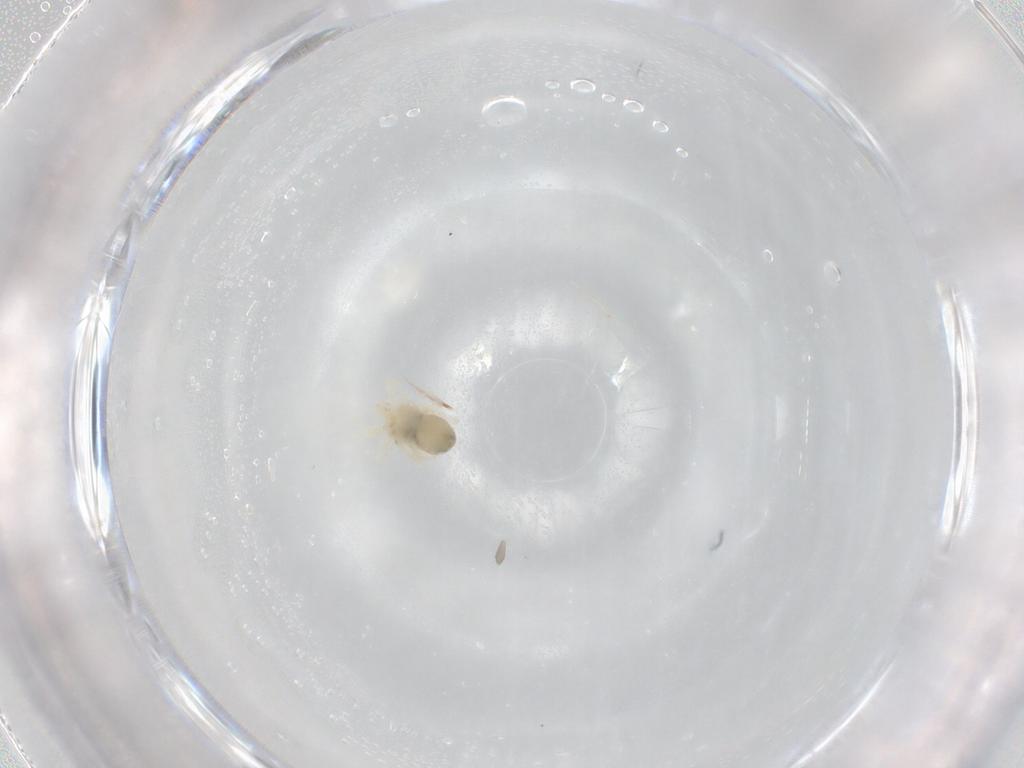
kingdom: Animalia
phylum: Arthropoda
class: Arachnida
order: Trombidiformes
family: Anystidae
